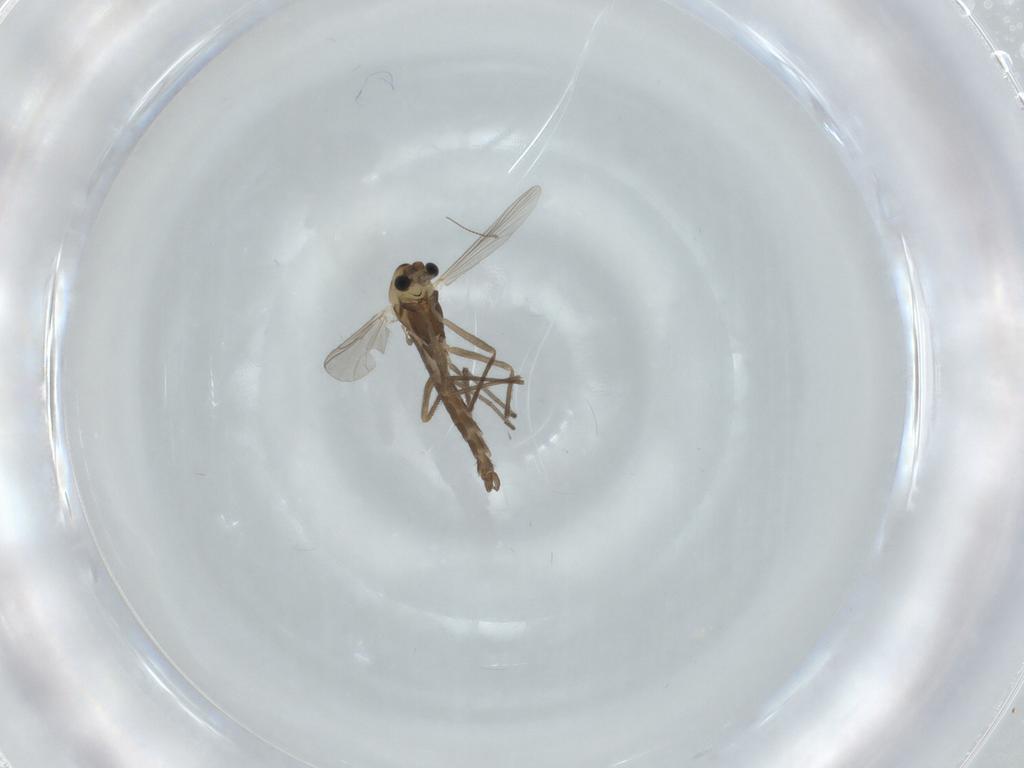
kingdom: Animalia
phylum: Arthropoda
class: Insecta
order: Diptera
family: Chironomidae
